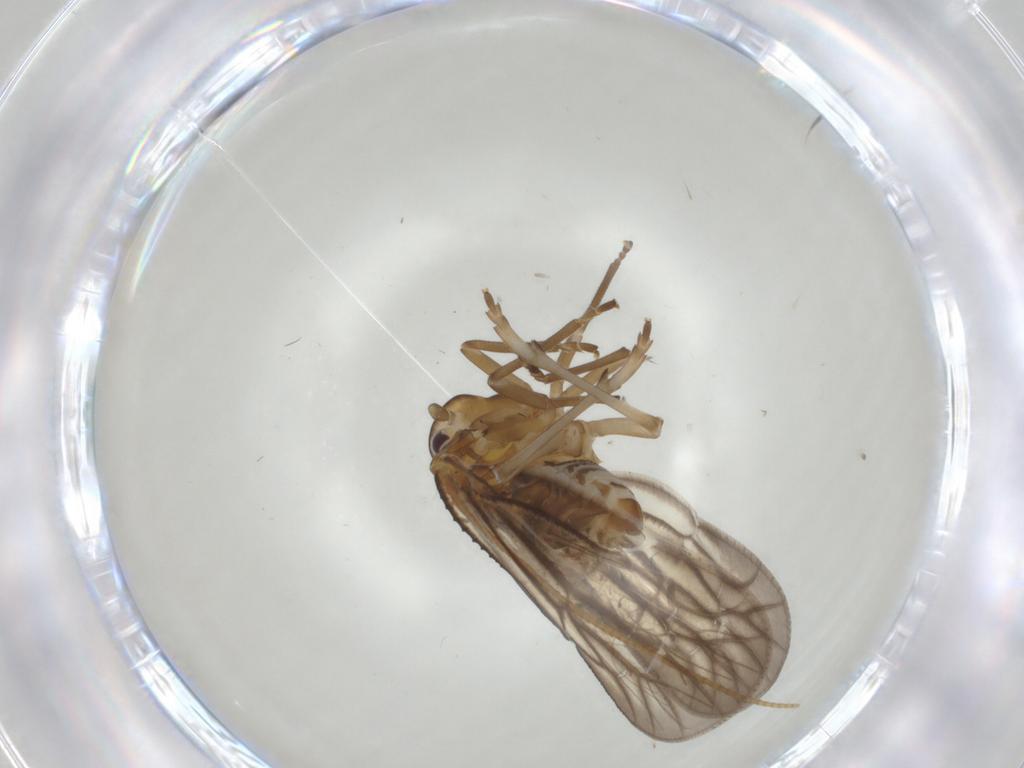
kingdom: Animalia
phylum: Arthropoda
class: Insecta
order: Hemiptera
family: Meenoplidae
